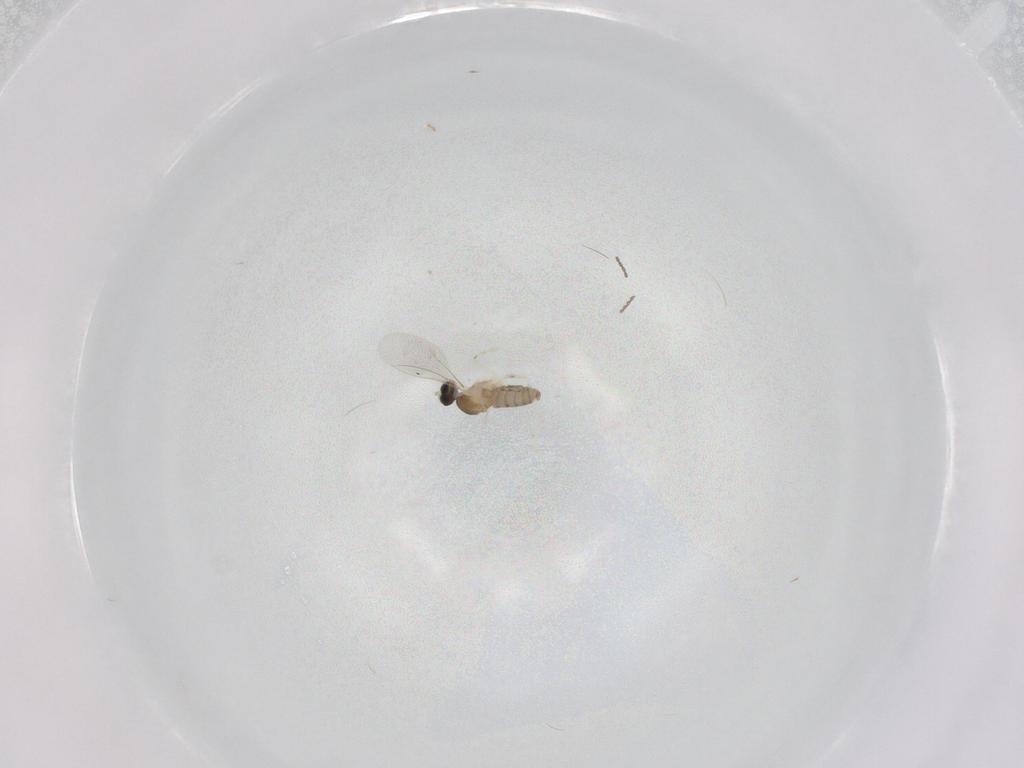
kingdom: Animalia
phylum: Arthropoda
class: Insecta
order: Diptera
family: Cecidomyiidae
